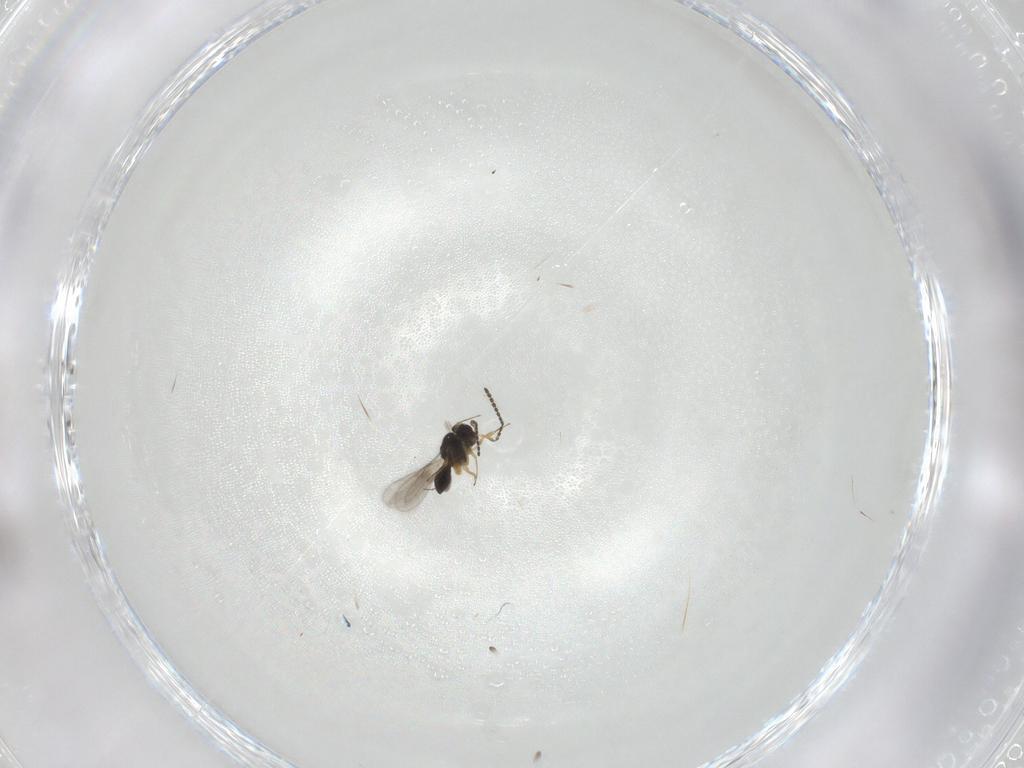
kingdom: Animalia
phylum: Arthropoda
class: Insecta
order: Hymenoptera
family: Scelionidae
